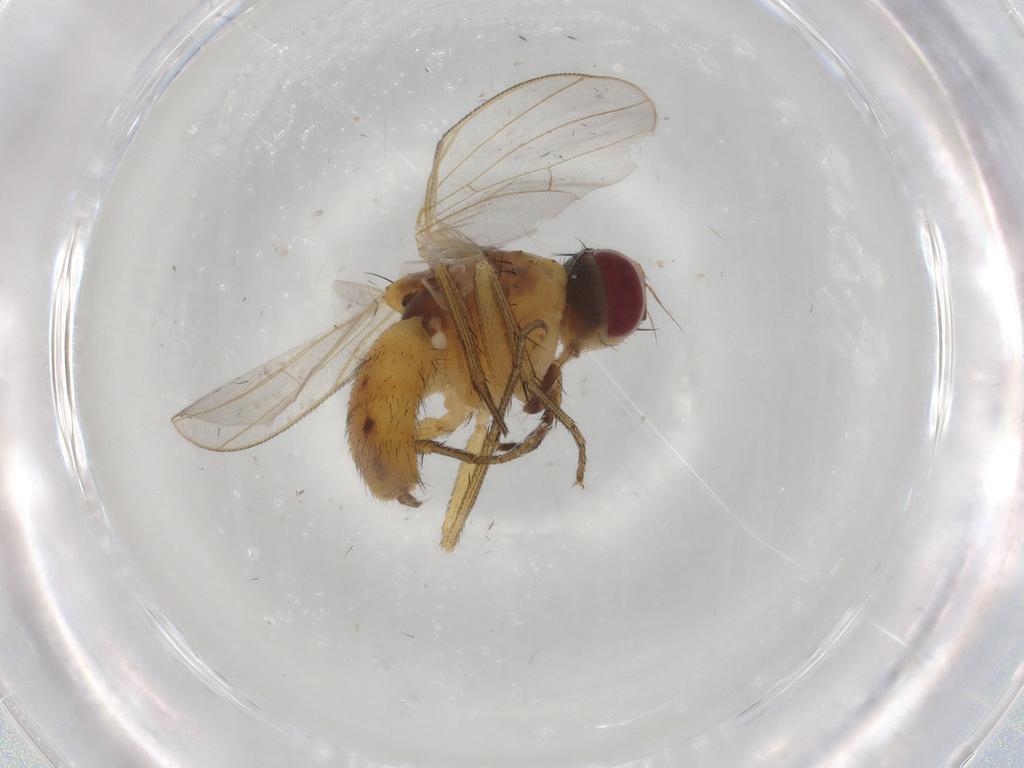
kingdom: Animalia
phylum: Arthropoda
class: Insecta
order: Diptera
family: Muscidae
